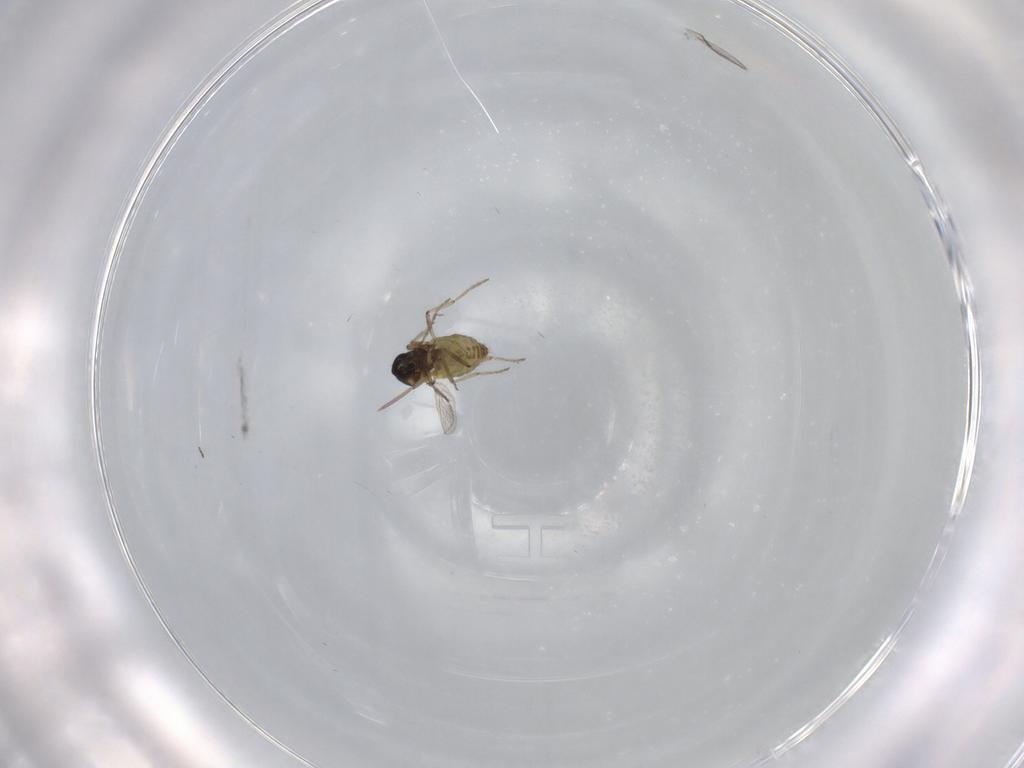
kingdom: Animalia
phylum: Arthropoda
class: Insecta
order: Diptera
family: Ceratopogonidae
